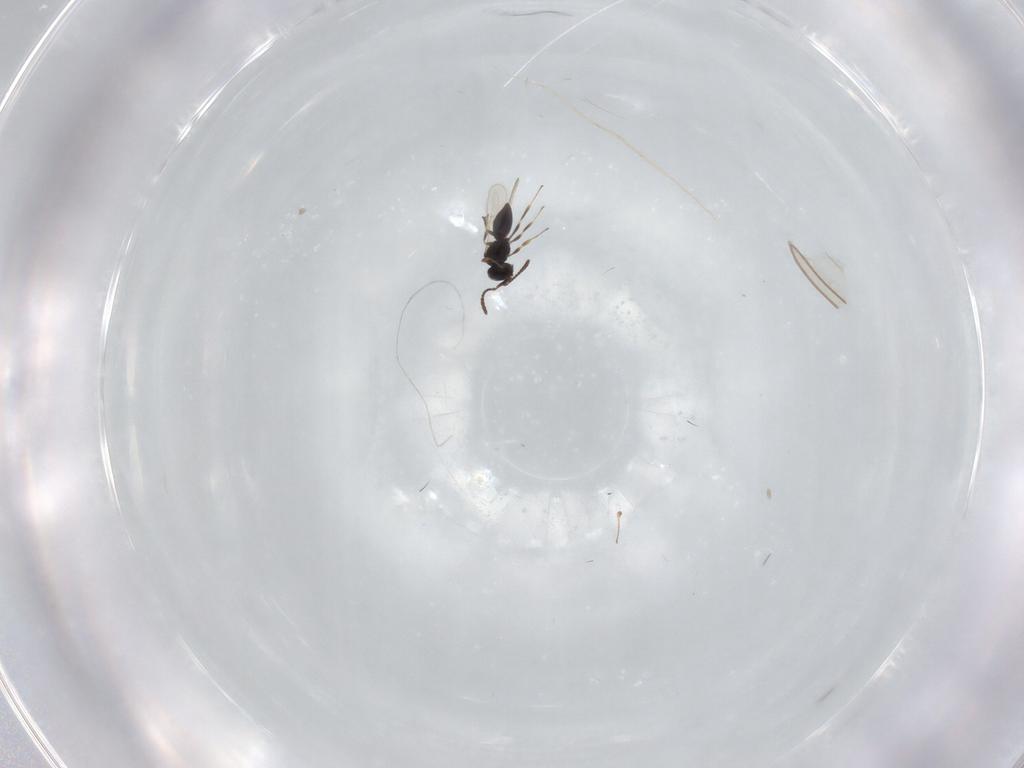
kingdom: Animalia
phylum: Arthropoda
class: Insecta
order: Hymenoptera
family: Scelionidae
